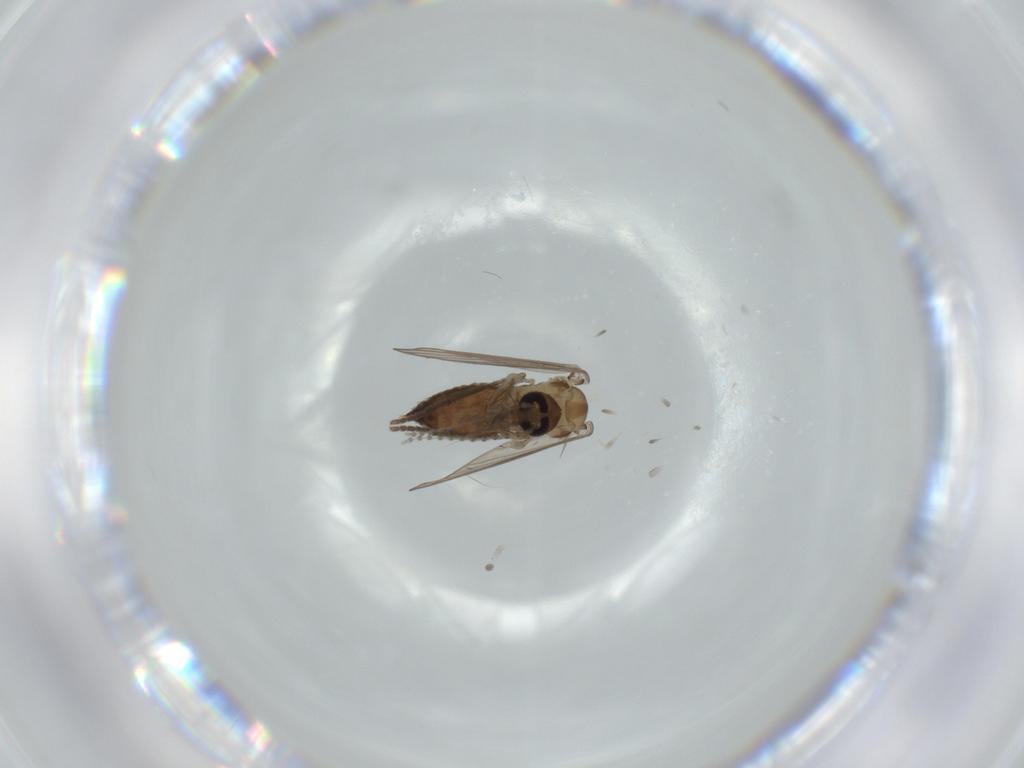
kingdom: Animalia
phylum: Arthropoda
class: Insecta
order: Diptera
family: Psychodidae
